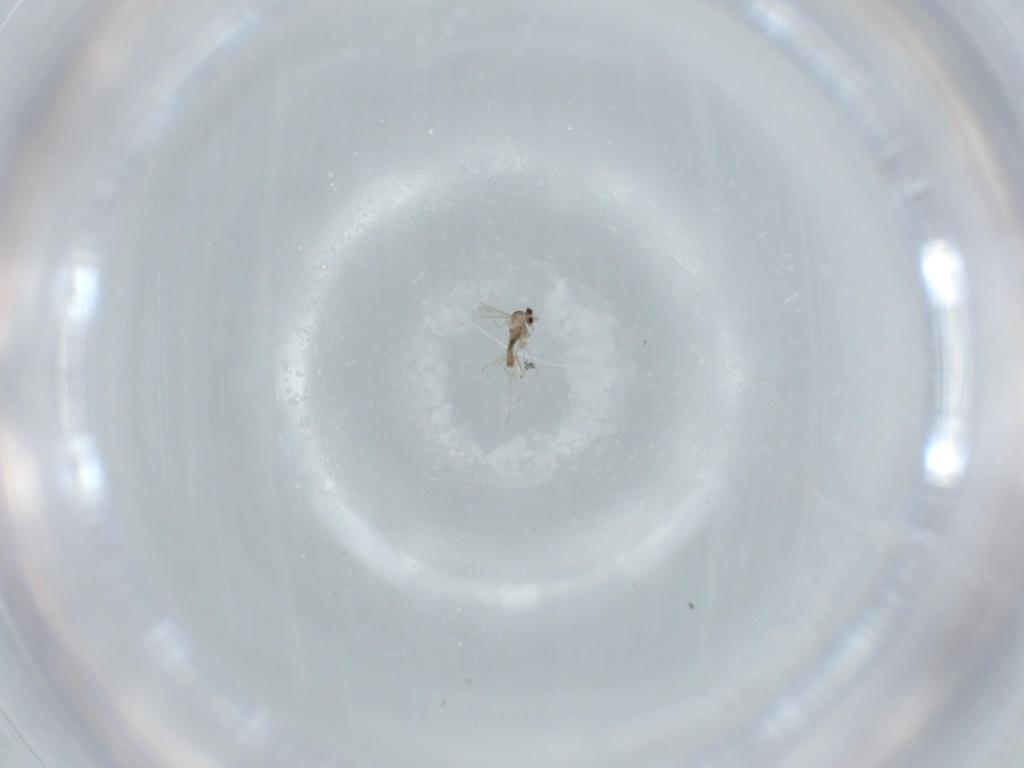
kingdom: Animalia
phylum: Arthropoda
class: Insecta
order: Diptera
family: Cecidomyiidae
